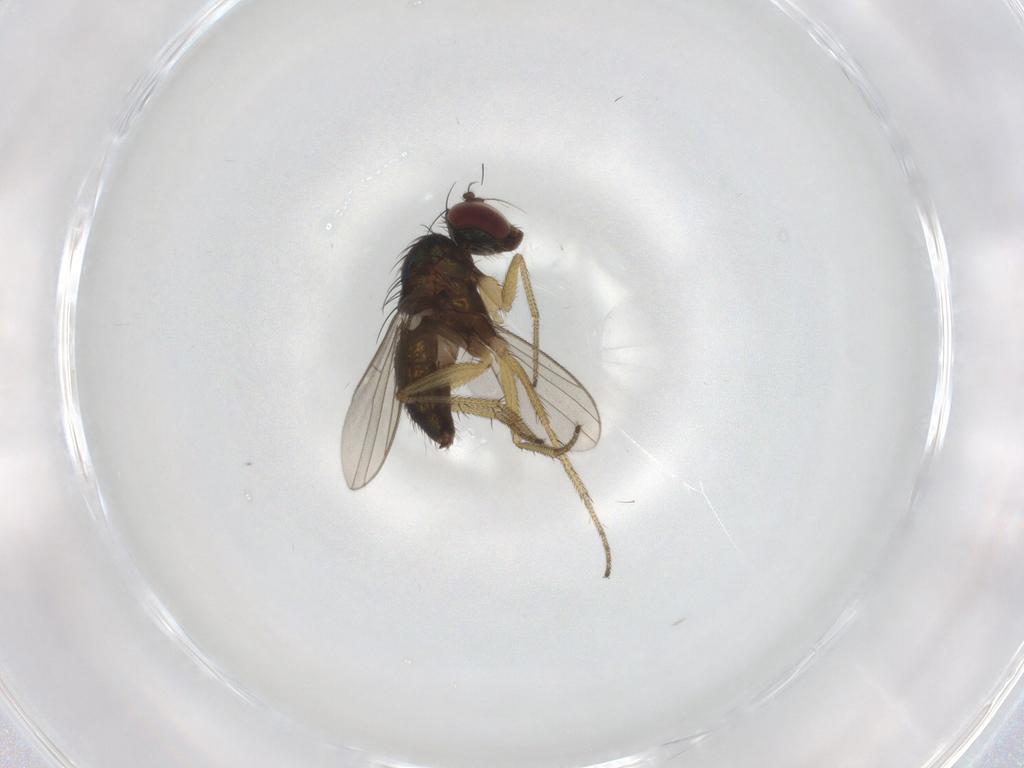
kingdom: Animalia
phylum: Arthropoda
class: Insecta
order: Diptera
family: Dolichopodidae
